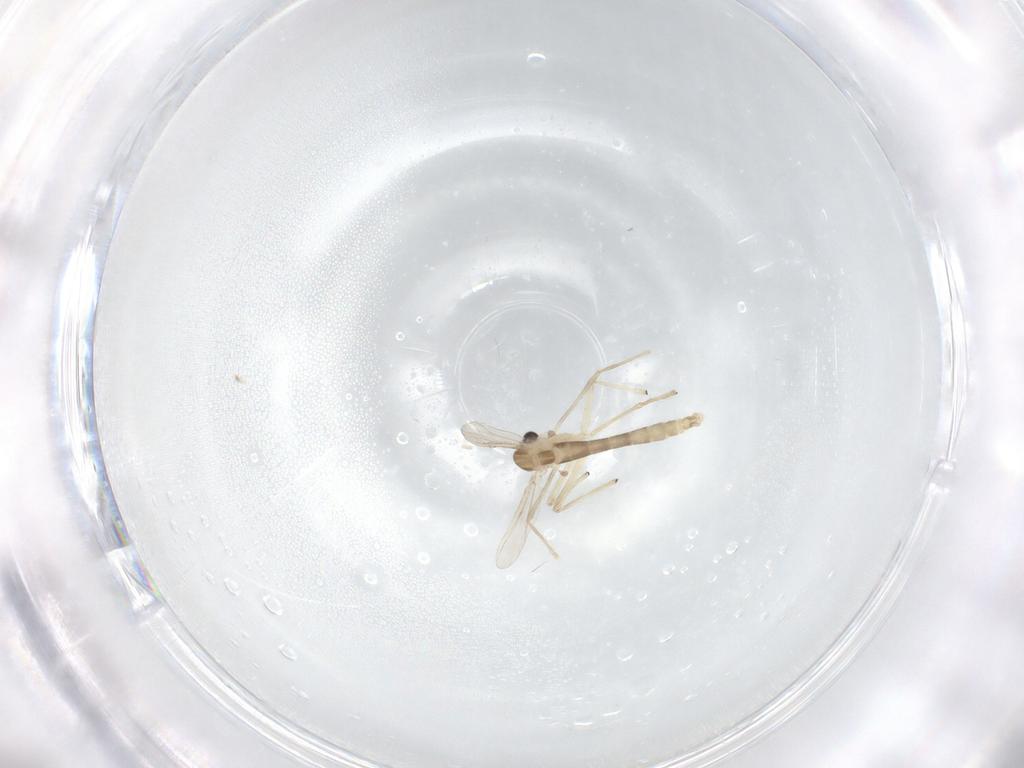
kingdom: Animalia
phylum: Arthropoda
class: Insecta
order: Diptera
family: Chironomidae
